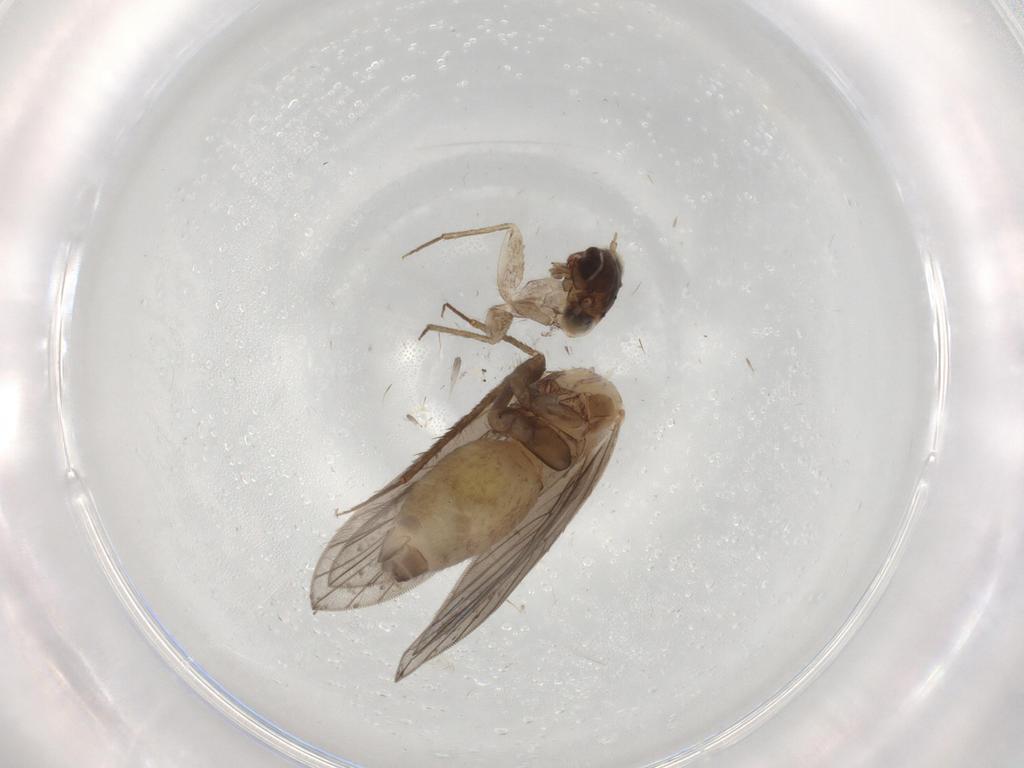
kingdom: Animalia
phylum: Arthropoda
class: Insecta
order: Psocodea
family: Lepidopsocidae
